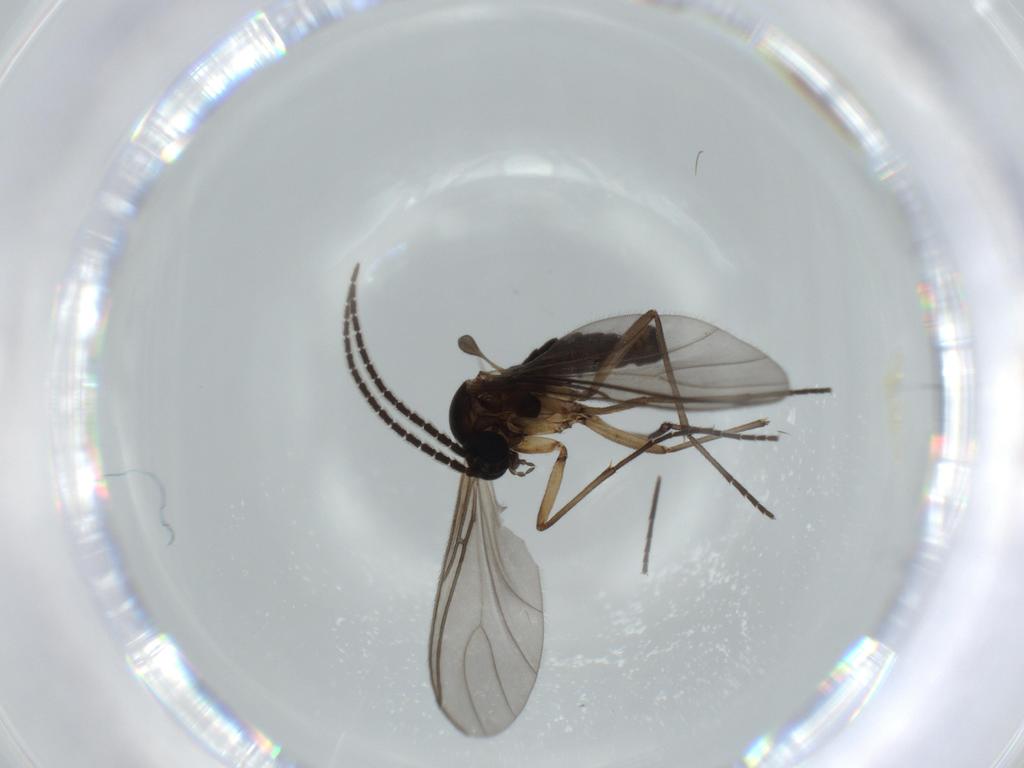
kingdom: Animalia
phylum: Arthropoda
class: Insecta
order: Diptera
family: Sciaridae
